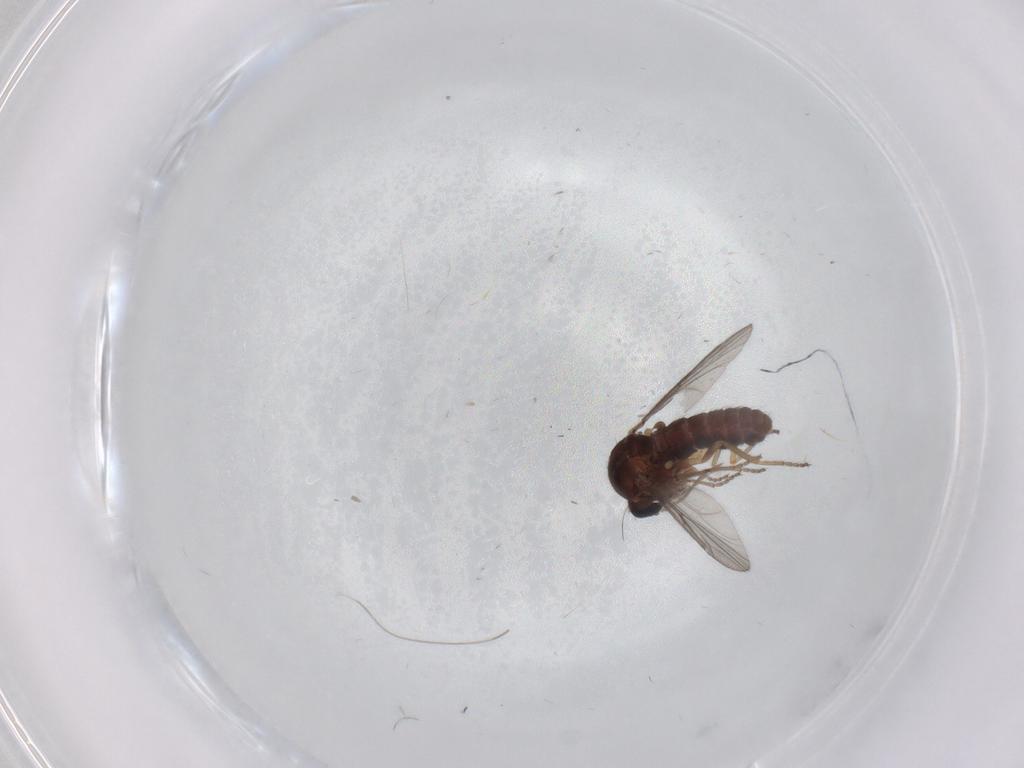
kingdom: Animalia
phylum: Arthropoda
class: Insecta
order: Diptera
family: Ceratopogonidae
